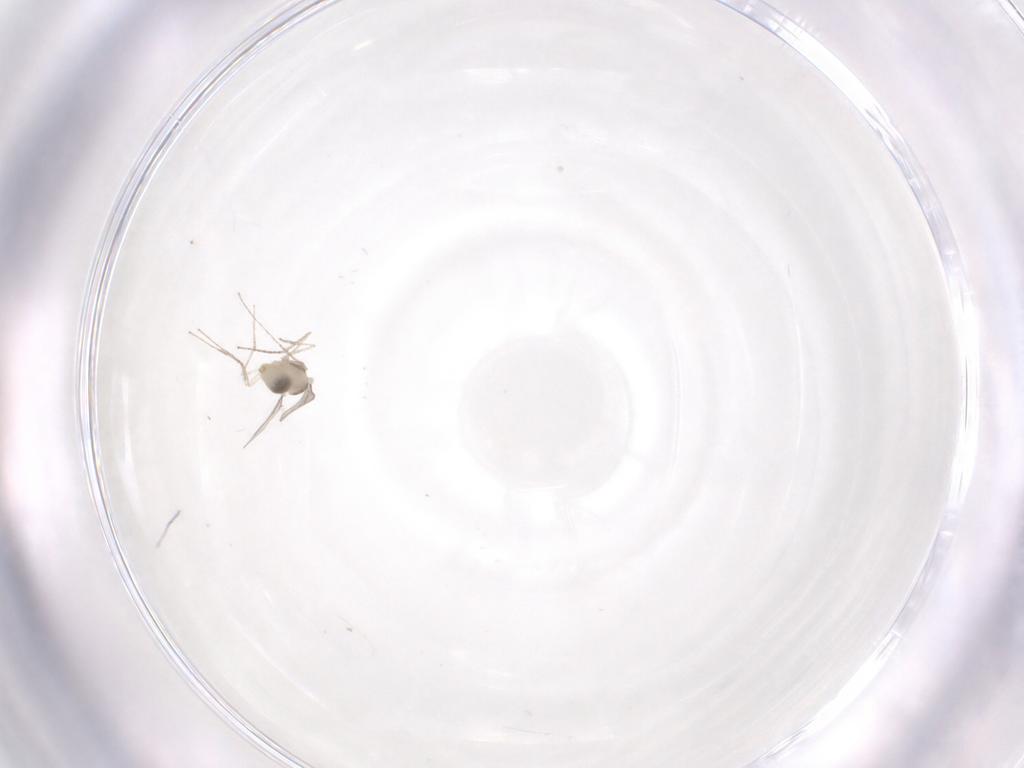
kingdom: Animalia
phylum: Arthropoda
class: Insecta
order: Diptera
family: Cecidomyiidae
